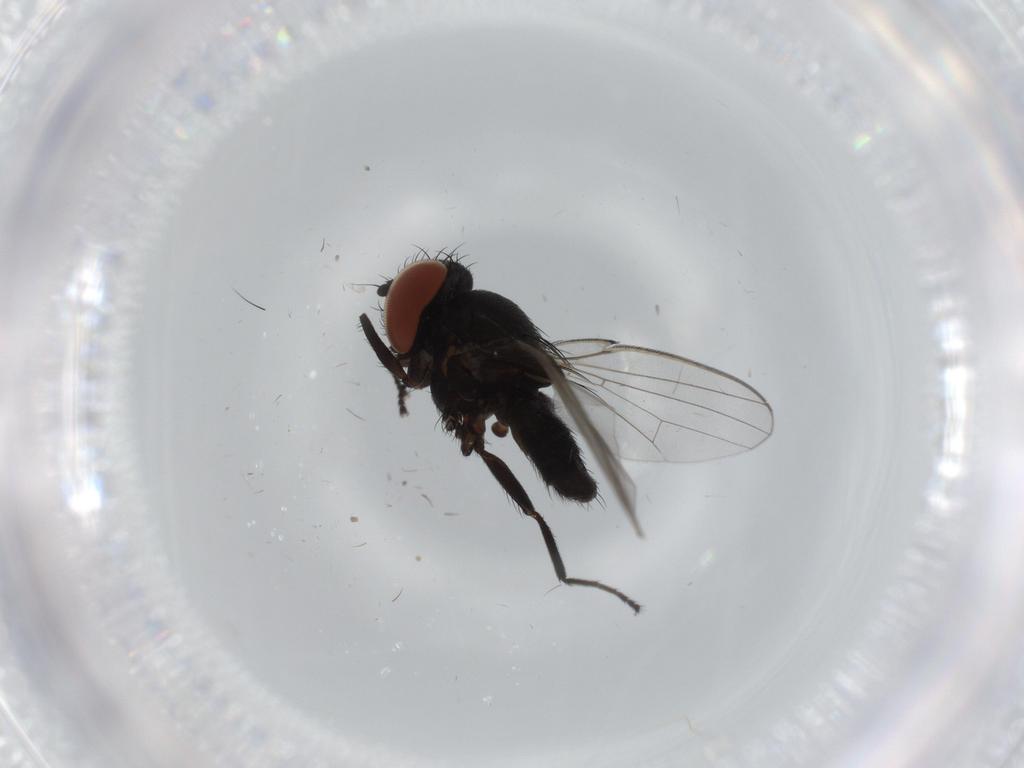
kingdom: Animalia
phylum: Arthropoda
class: Insecta
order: Diptera
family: Milichiidae
